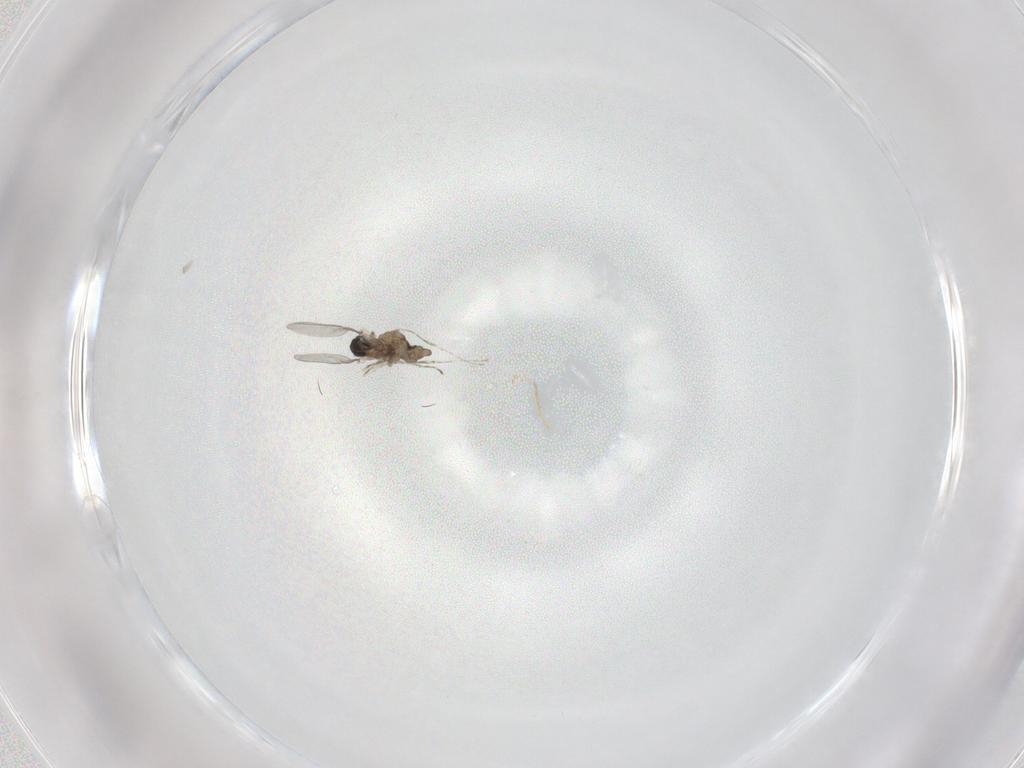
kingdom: Animalia
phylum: Arthropoda
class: Insecta
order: Diptera
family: Cecidomyiidae
